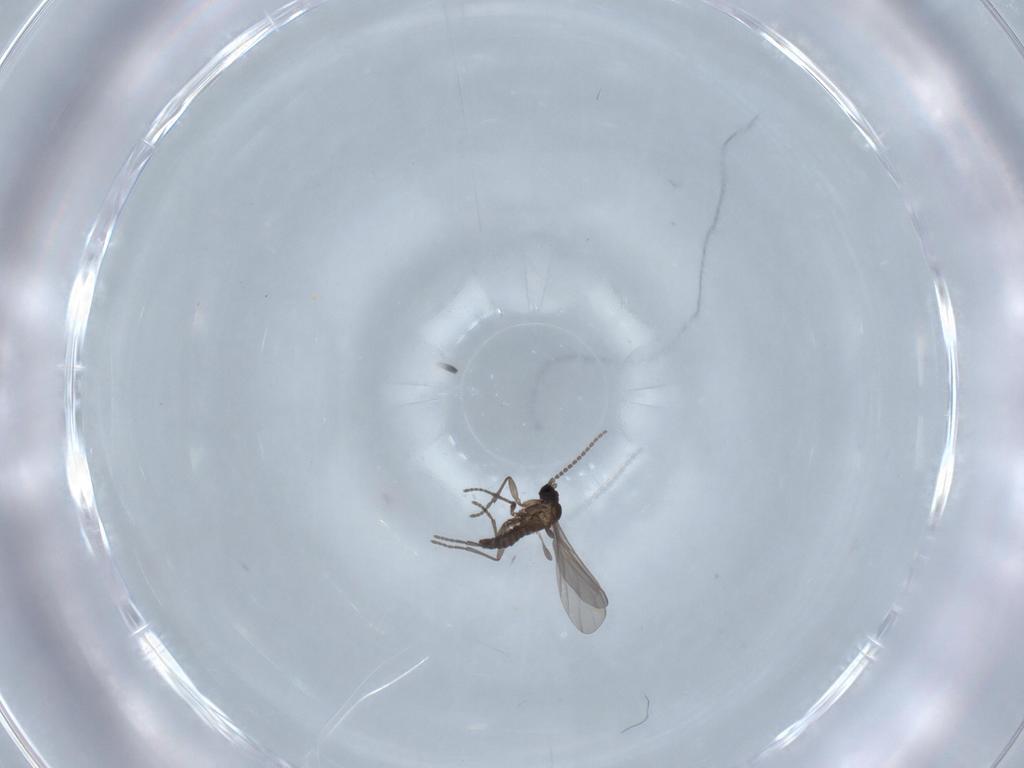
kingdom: Animalia
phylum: Arthropoda
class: Insecta
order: Diptera
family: Cecidomyiidae
